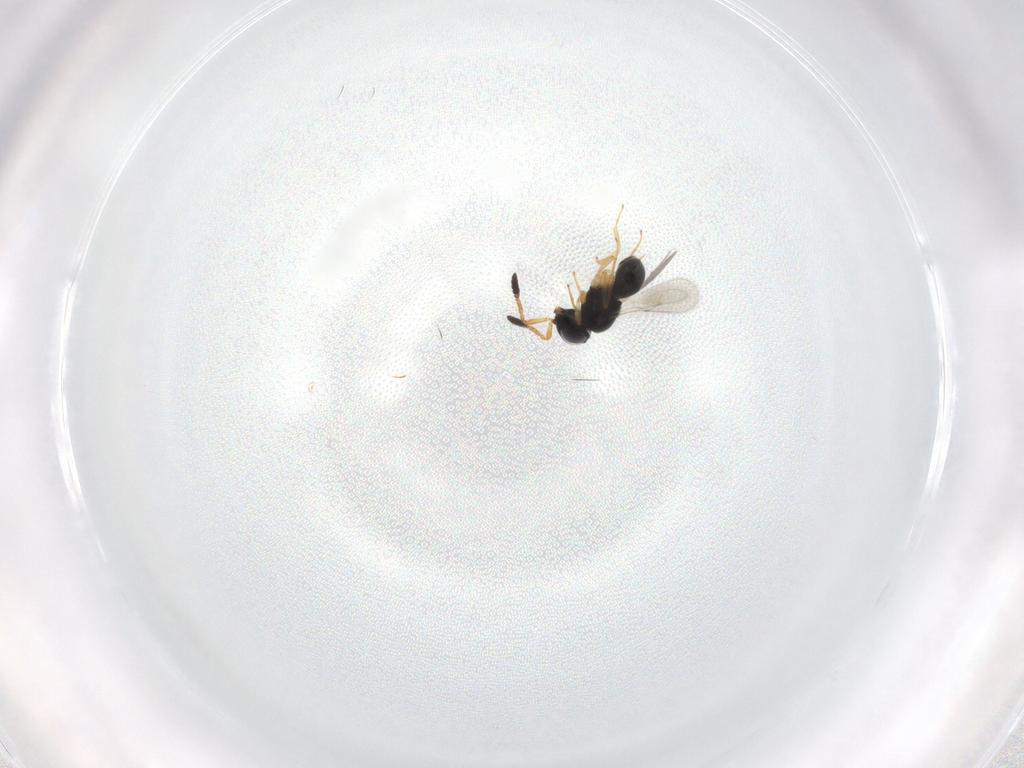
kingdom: Animalia
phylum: Arthropoda
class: Insecta
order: Hymenoptera
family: Scelionidae
